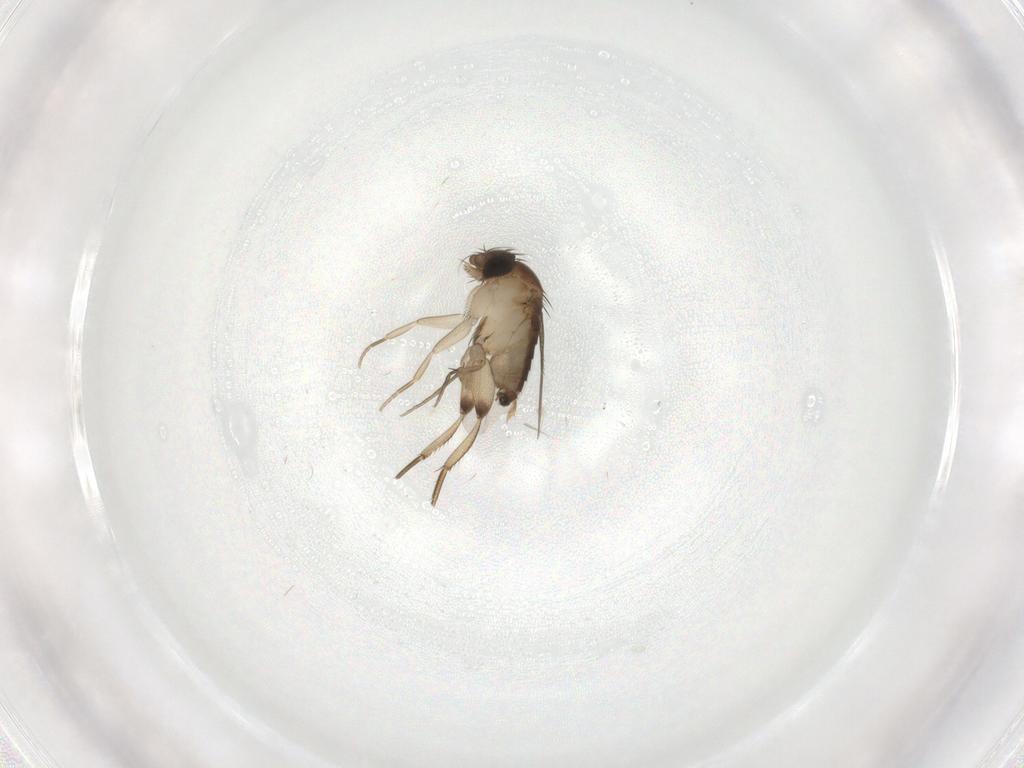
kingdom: Animalia
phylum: Arthropoda
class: Insecta
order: Diptera
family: Phoridae
